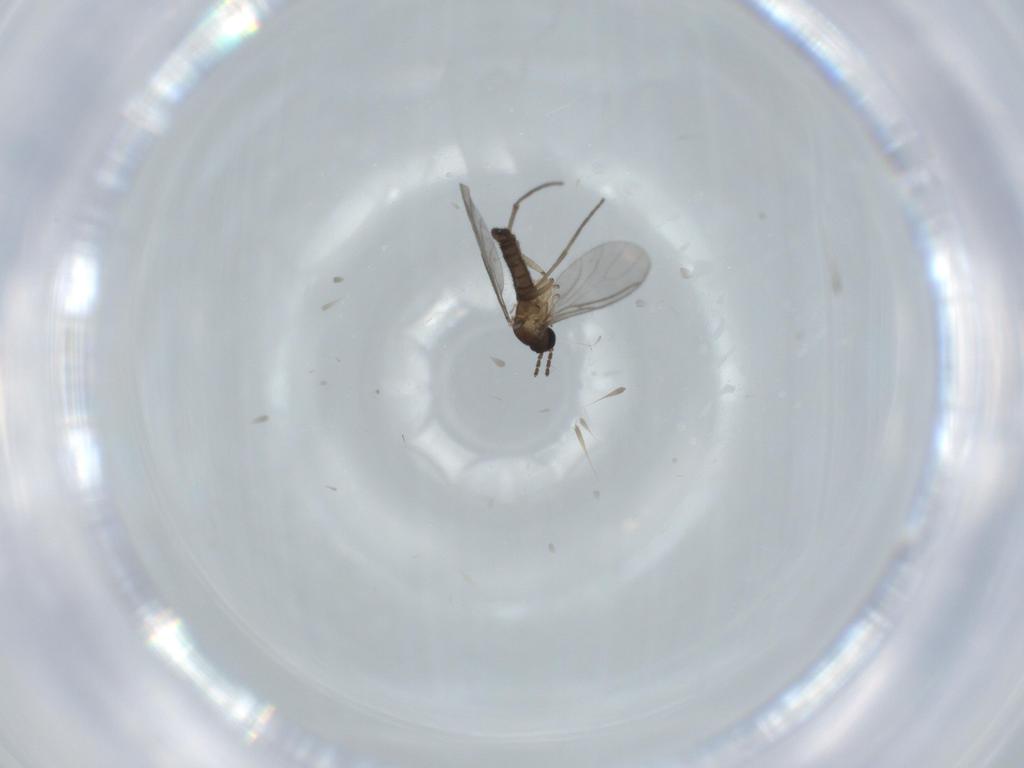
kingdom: Animalia
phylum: Arthropoda
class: Insecta
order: Diptera
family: Sciaridae
